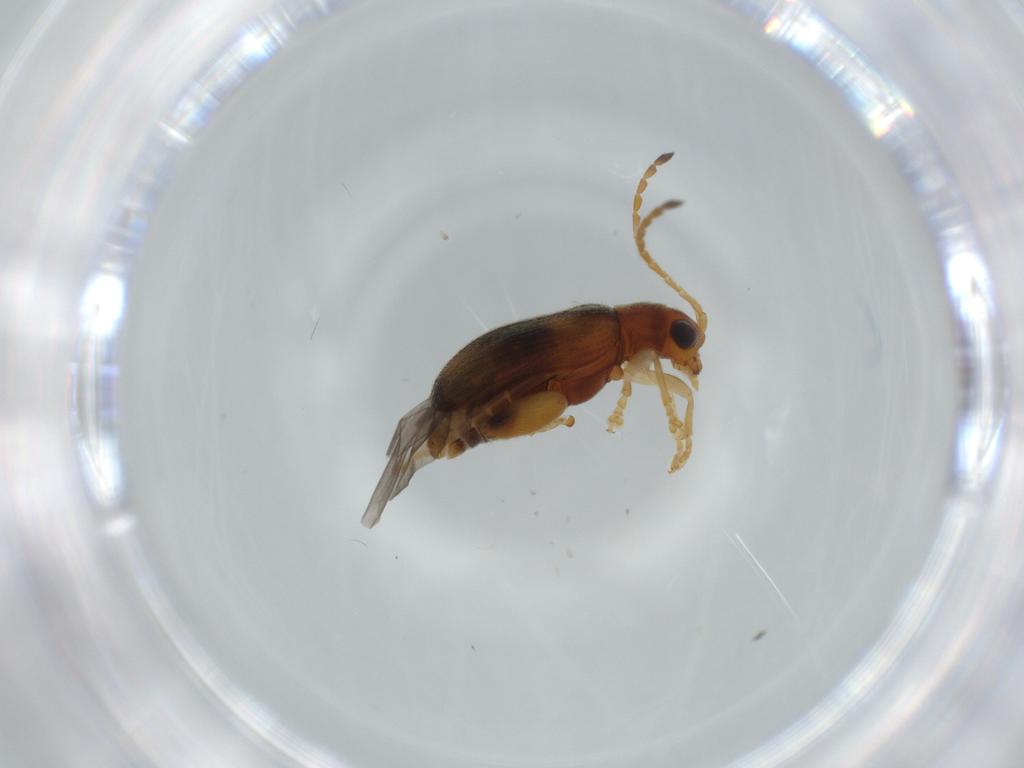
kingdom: Animalia
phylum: Arthropoda
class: Insecta
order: Coleoptera
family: Chrysomelidae
